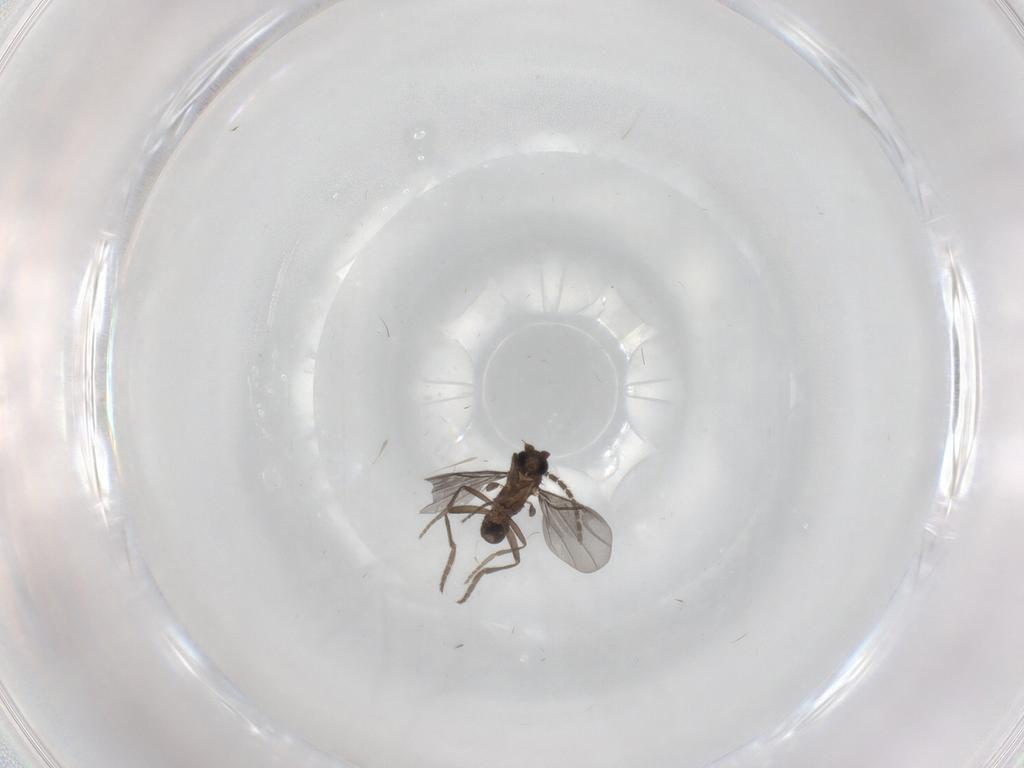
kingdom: Animalia
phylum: Arthropoda
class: Insecta
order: Diptera
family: Phoridae
